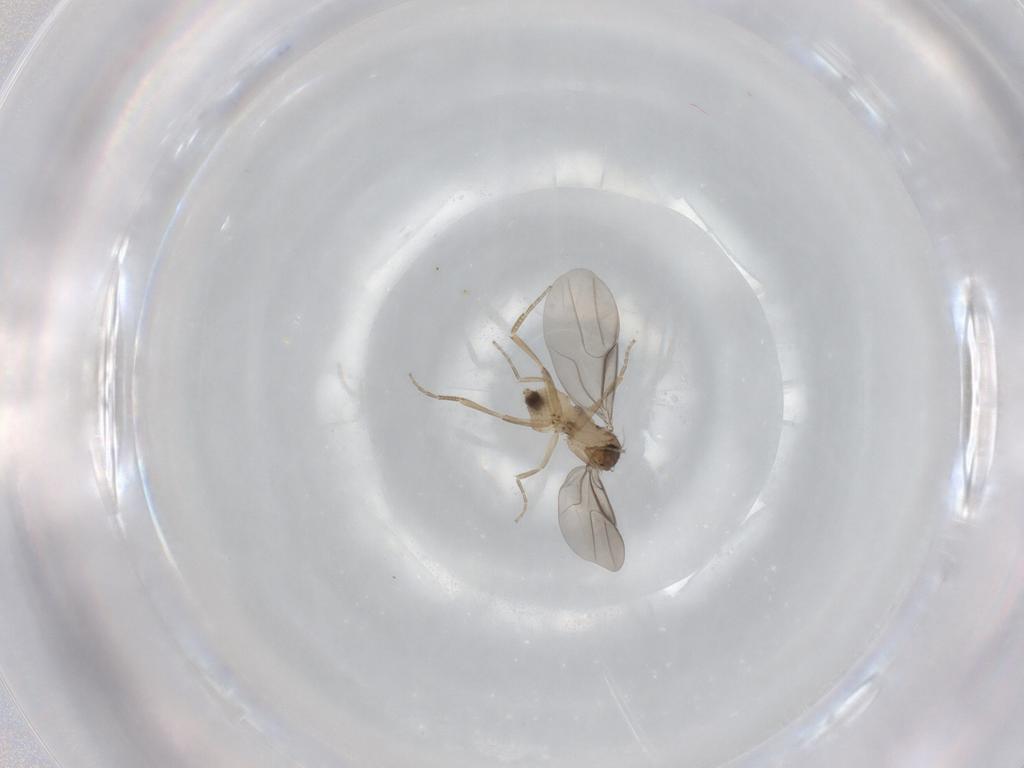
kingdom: Animalia
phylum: Arthropoda
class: Insecta
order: Diptera
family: Phoridae
